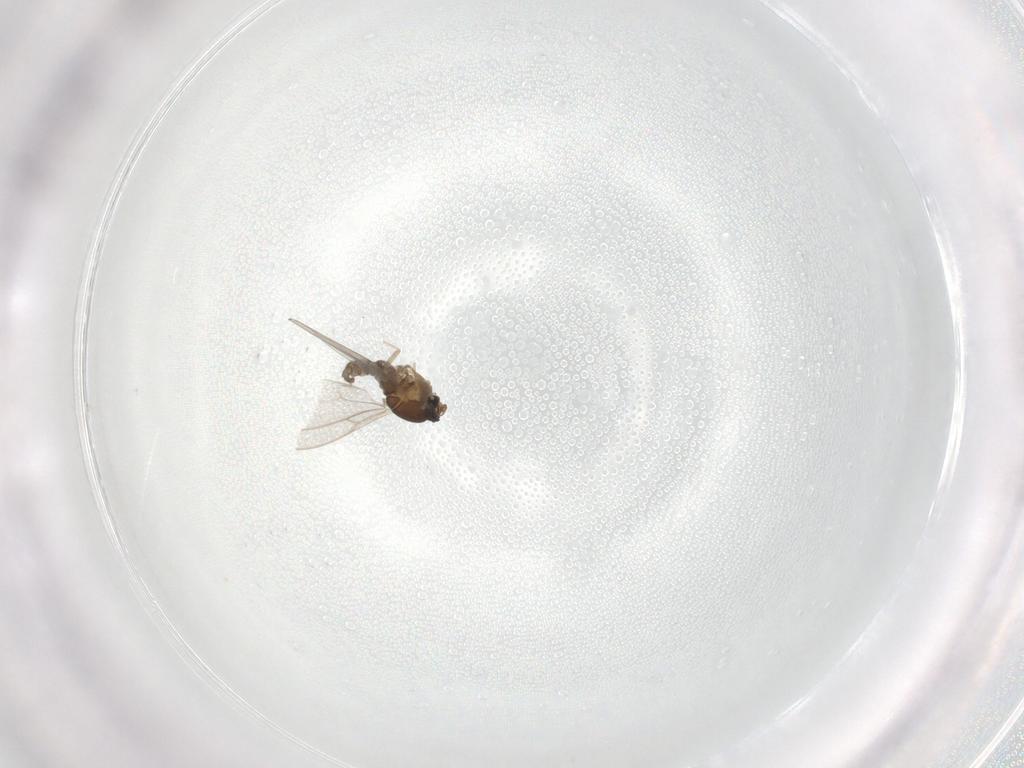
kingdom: Animalia
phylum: Arthropoda
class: Insecta
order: Diptera
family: Cecidomyiidae
